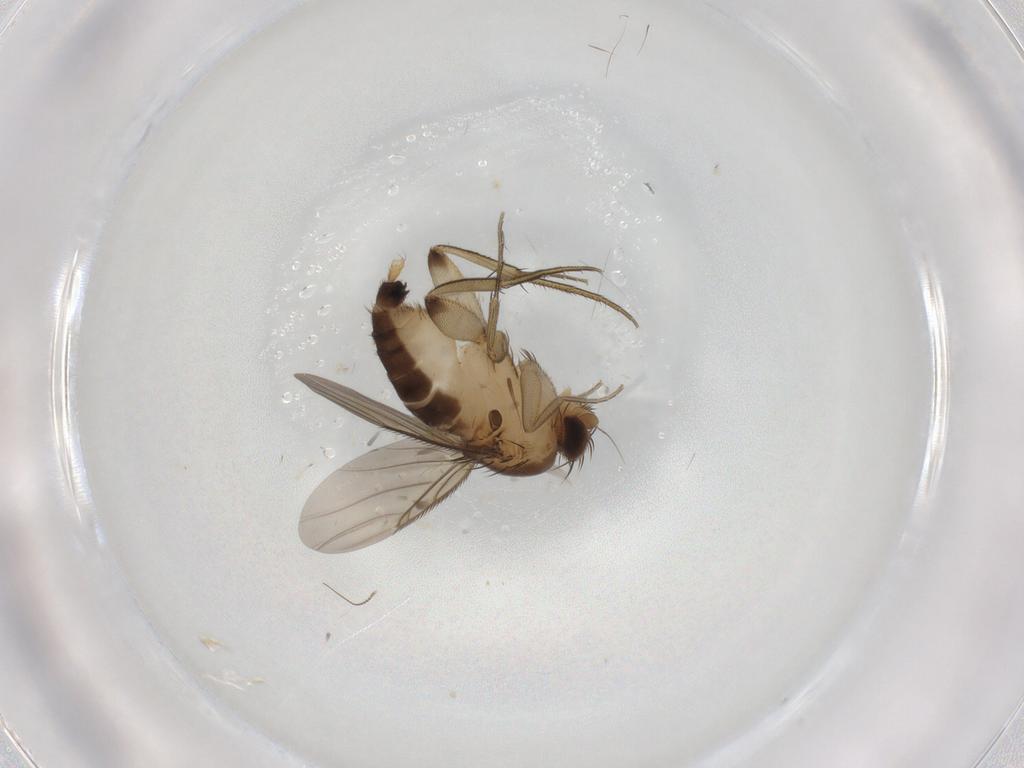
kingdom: Animalia
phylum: Arthropoda
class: Insecta
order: Diptera
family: Phoridae
